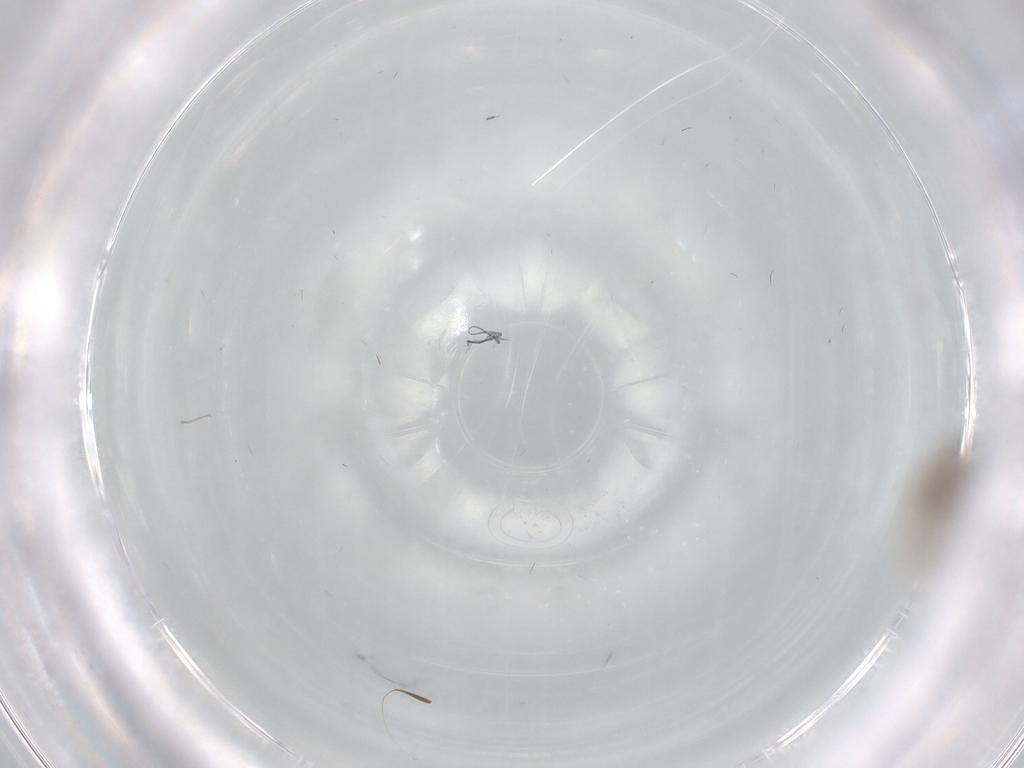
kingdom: Animalia
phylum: Arthropoda
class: Insecta
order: Diptera
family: Cecidomyiidae
